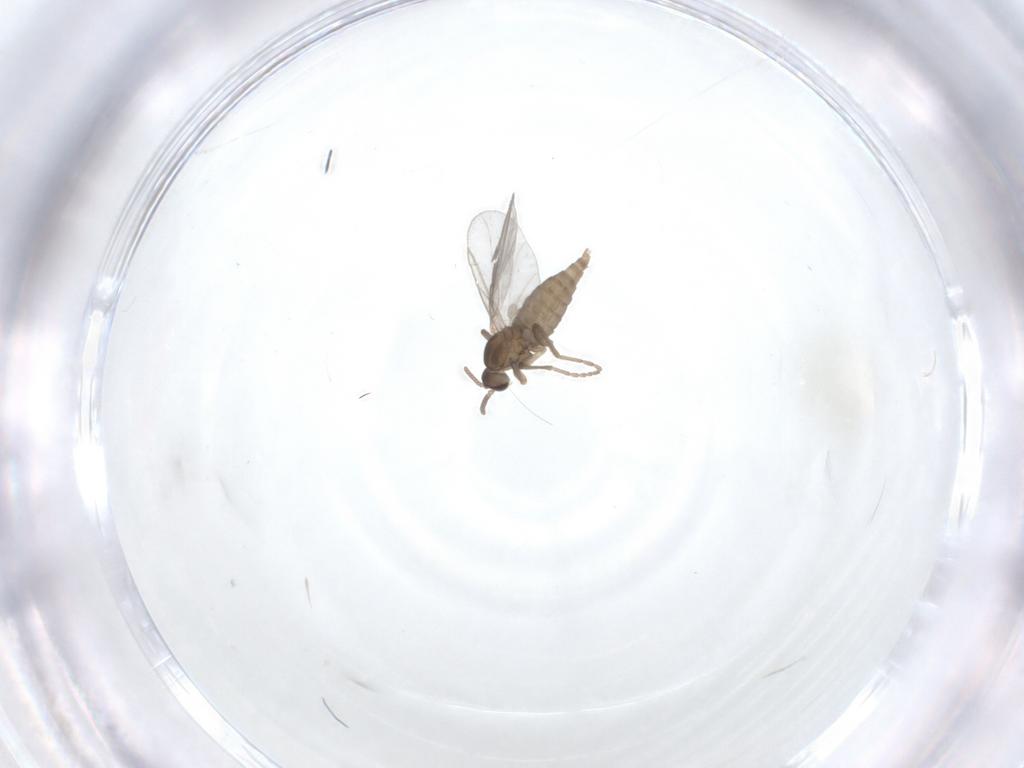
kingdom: Animalia
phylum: Arthropoda
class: Insecta
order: Diptera
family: Cecidomyiidae
